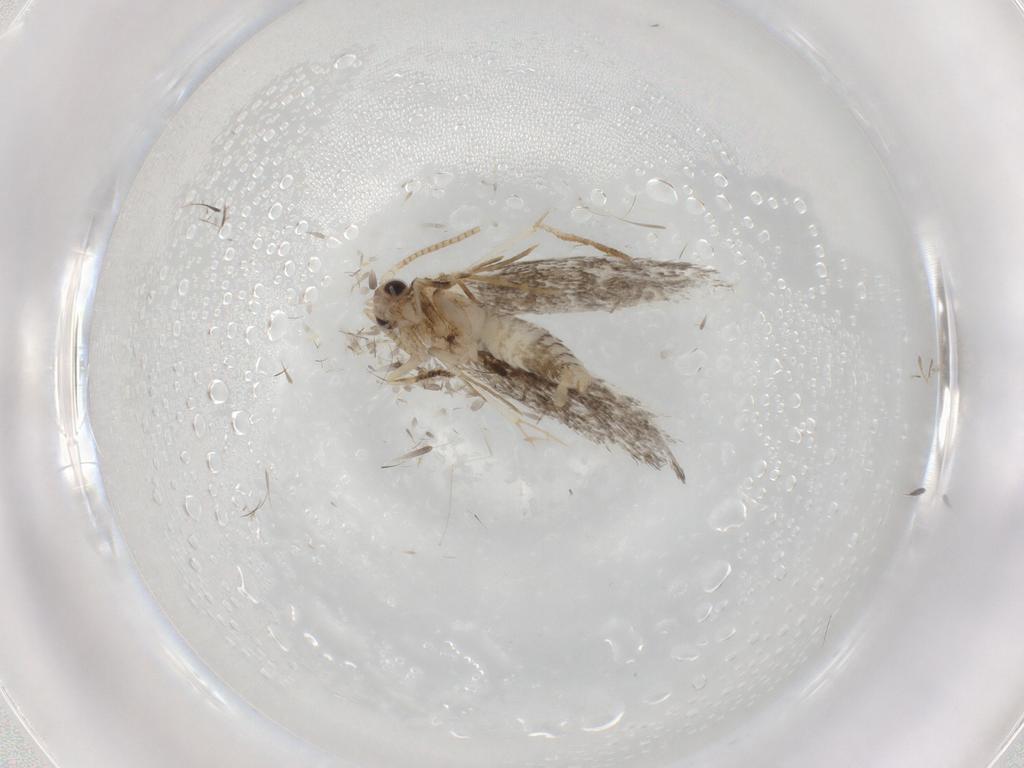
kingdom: Animalia
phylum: Arthropoda
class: Insecta
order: Lepidoptera
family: Tineidae
